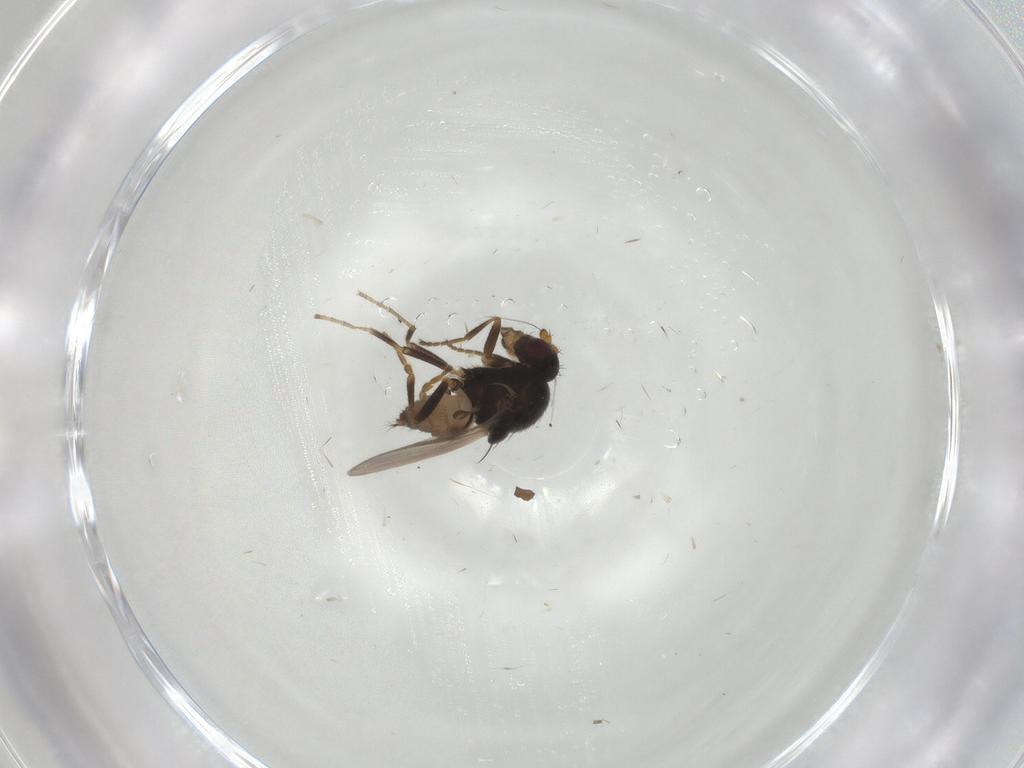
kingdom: Animalia
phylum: Arthropoda
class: Insecta
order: Diptera
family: Sphaeroceridae
